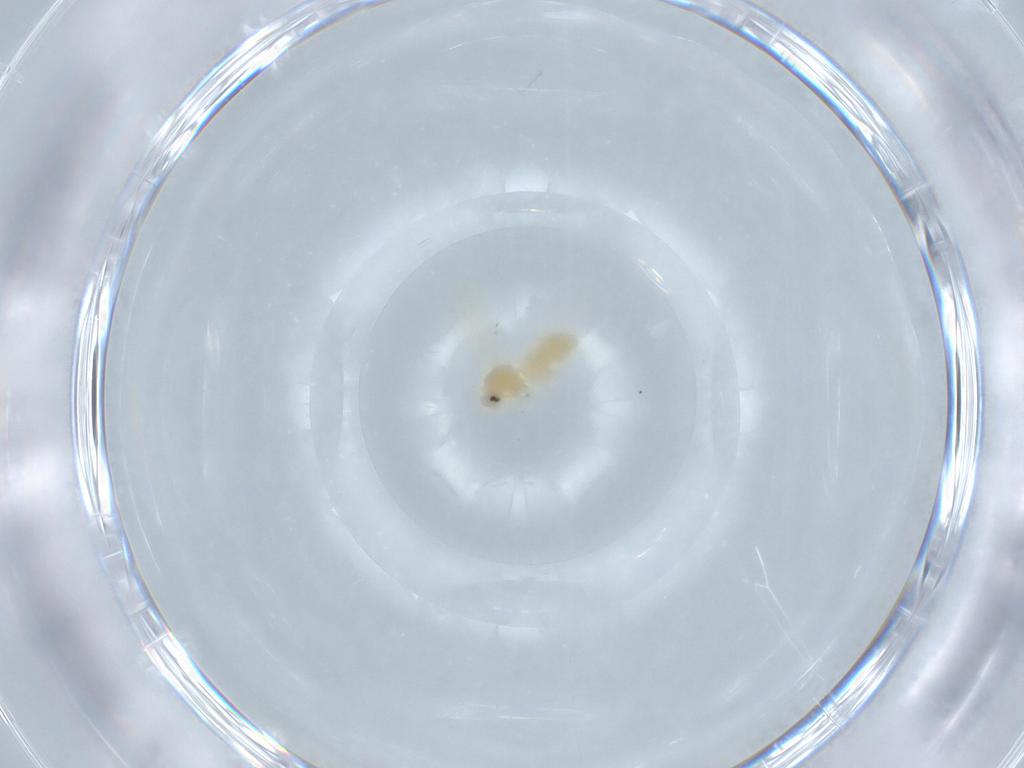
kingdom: Animalia
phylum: Arthropoda
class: Insecta
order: Hemiptera
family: Aleyrodidae
